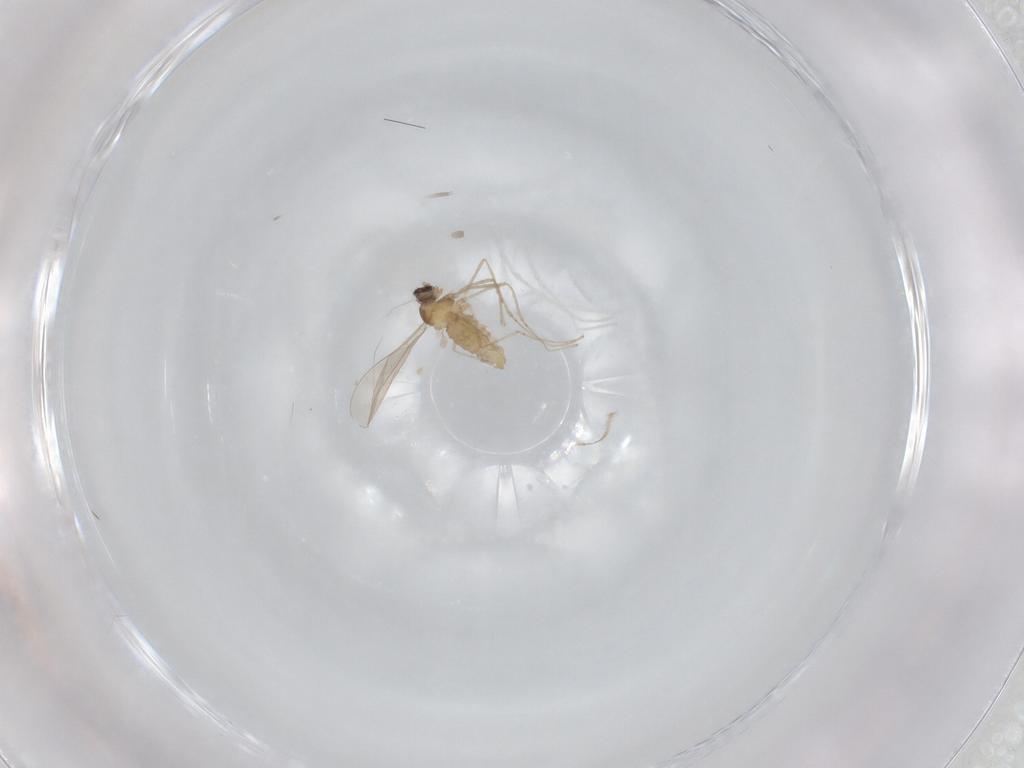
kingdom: Animalia
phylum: Arthropoda
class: Insecta
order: Diptera
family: Cecidomyiidae
